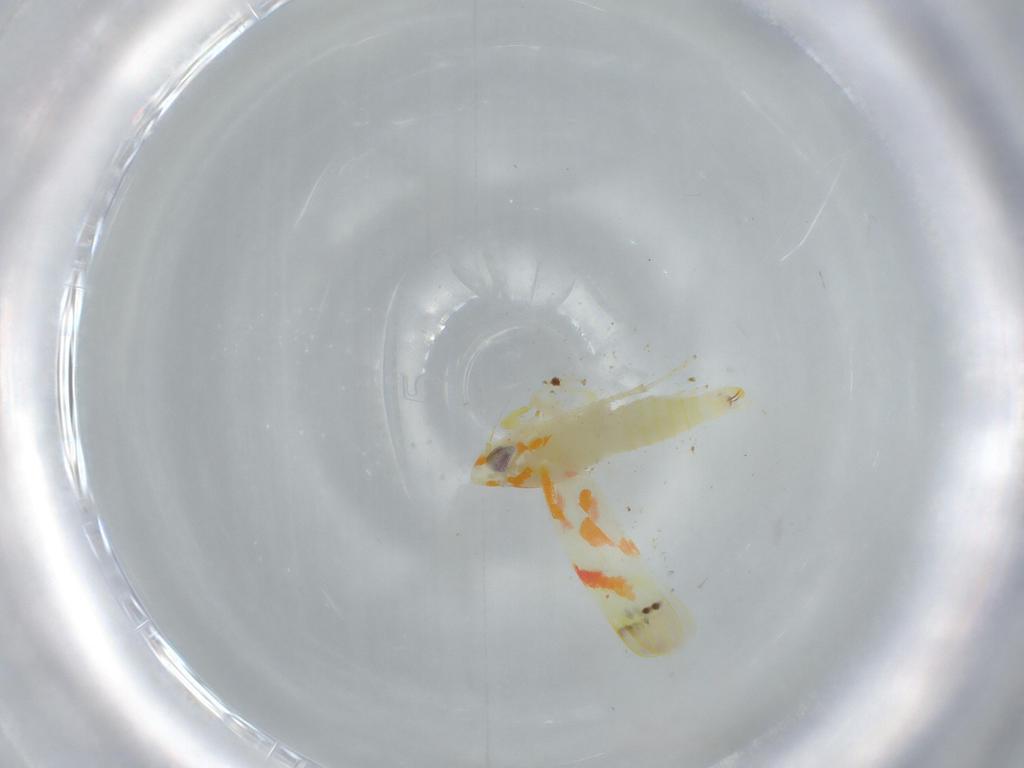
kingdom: Animalia
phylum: Arthropoda
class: Insecta
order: Hemiptera
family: Cicadellidae
